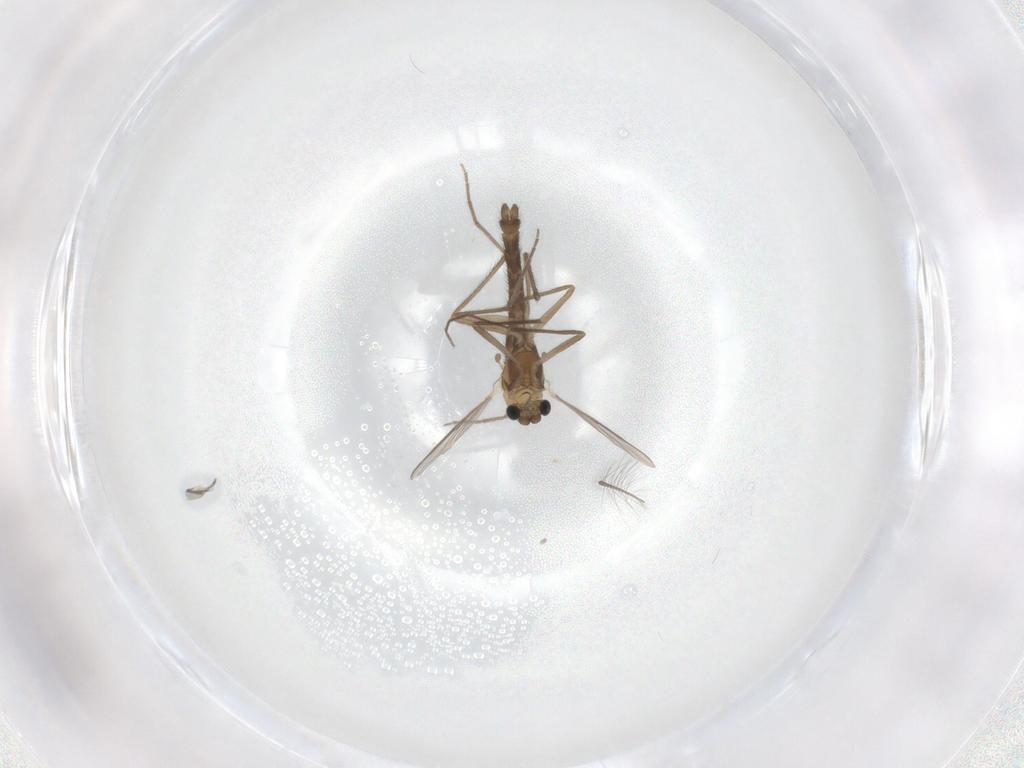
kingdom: Animalia
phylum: Arthropoda
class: Insecta
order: Diptera
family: Chironomidae
